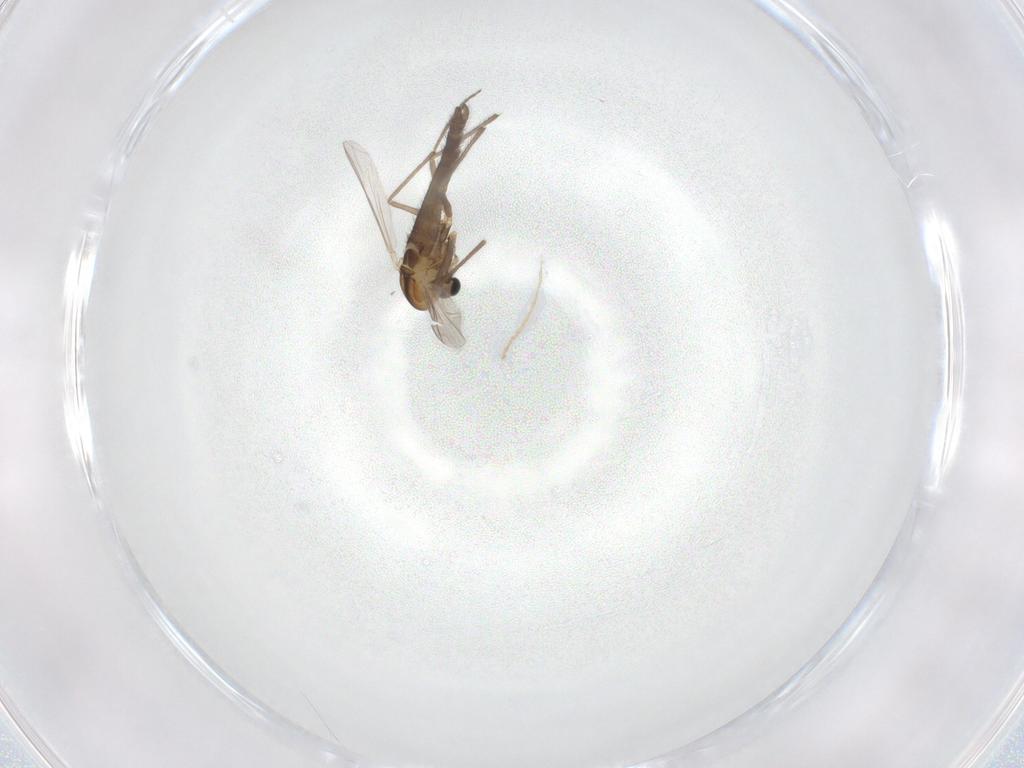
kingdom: Animalia
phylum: Arthropoda
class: Insecta
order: Diptera
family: Chironomidae
